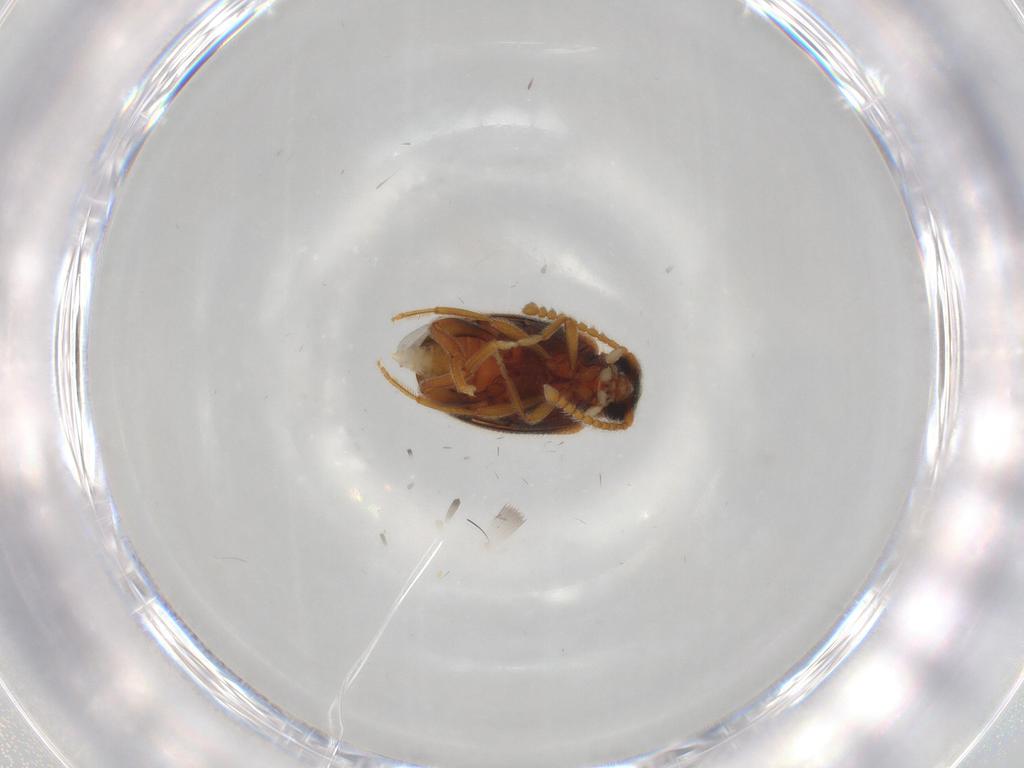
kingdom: Animalia
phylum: Arthropoda
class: Insecta
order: Coleoptera
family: Aderidae
